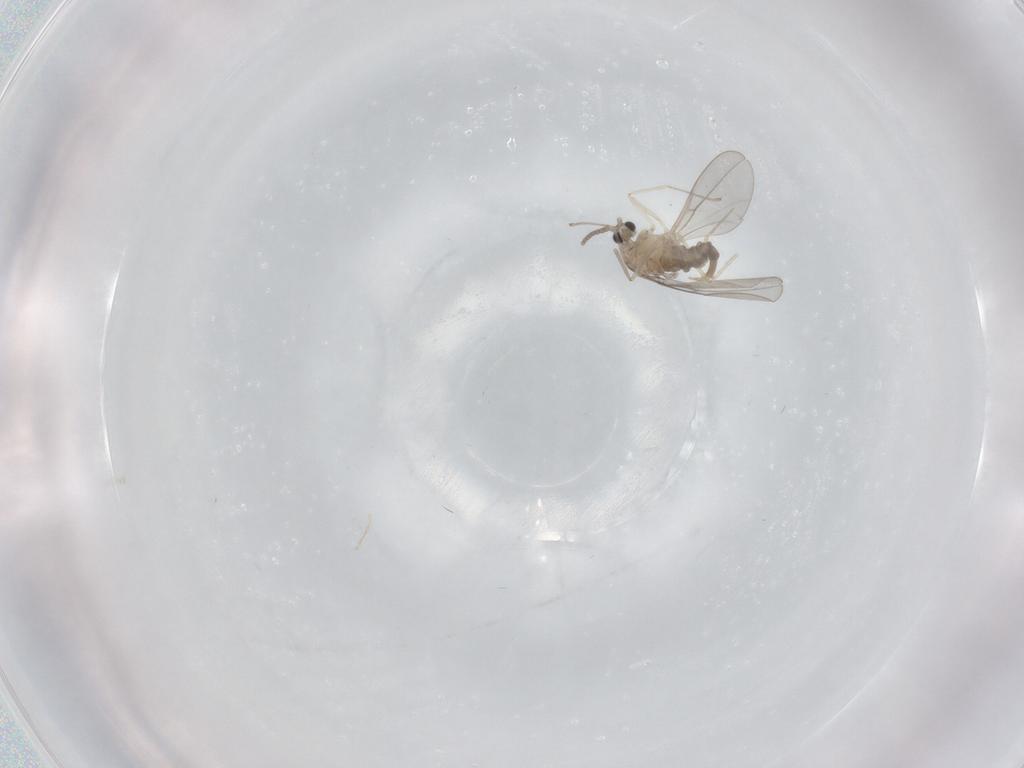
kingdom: Animalia
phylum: Arthropoda
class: Insecta
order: Diptera
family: Cecidomyiidae
